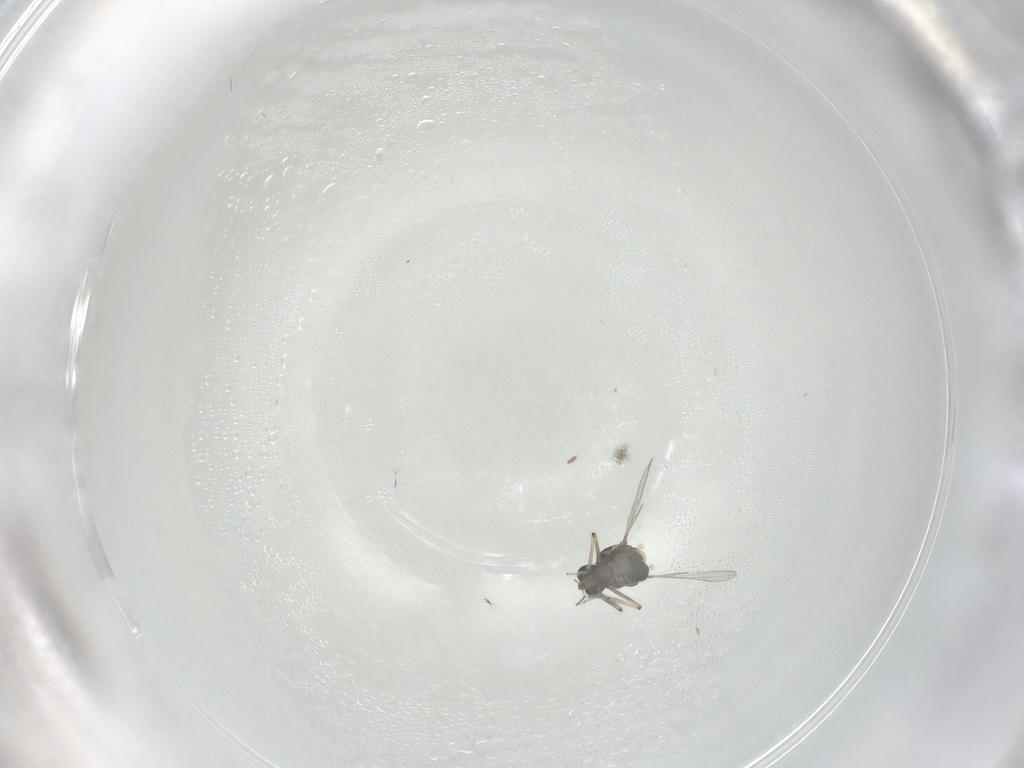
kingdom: Animalia
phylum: Arthropoda
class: Insecta
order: Diptera
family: Ceratopogonidae
